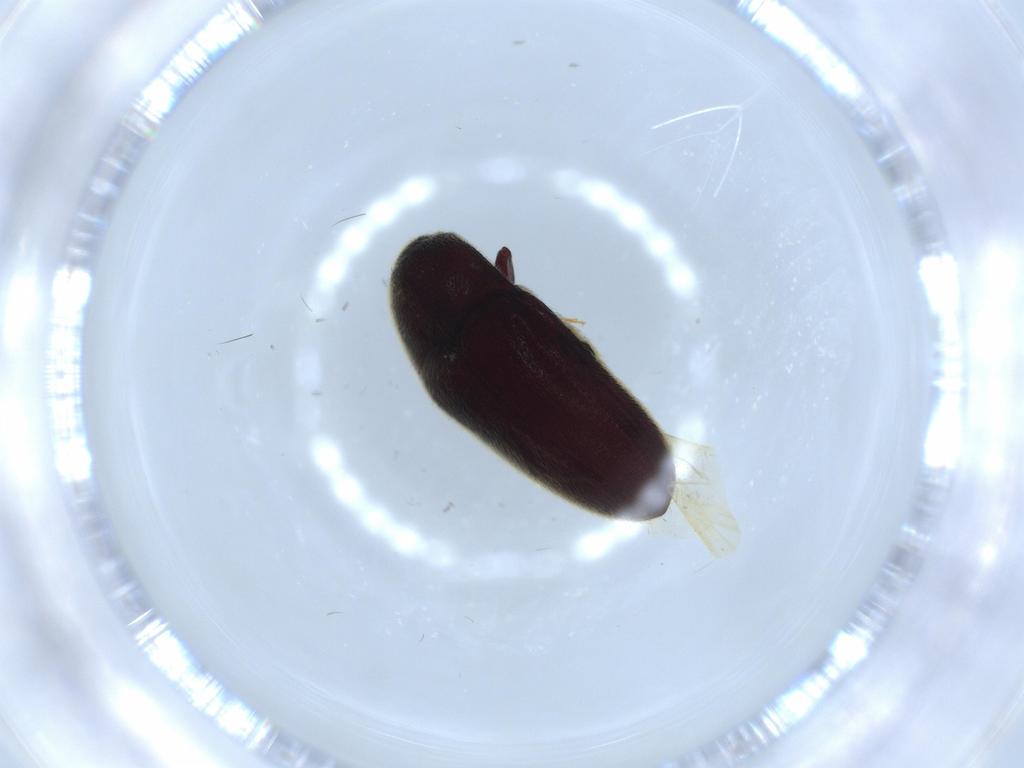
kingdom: Animalia
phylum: Arthropoda
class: Insecta
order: Coleoptera
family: Throscidae
